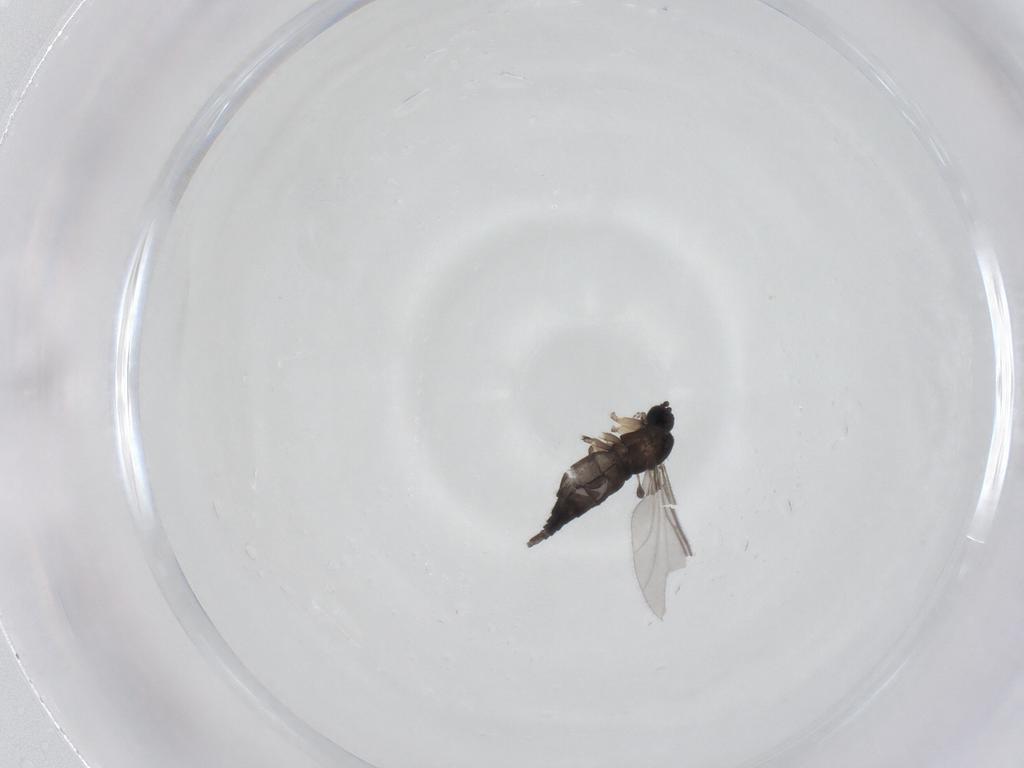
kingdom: Animalia
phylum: Arthropoda
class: Insecta
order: Diptera
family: Sciaridae
